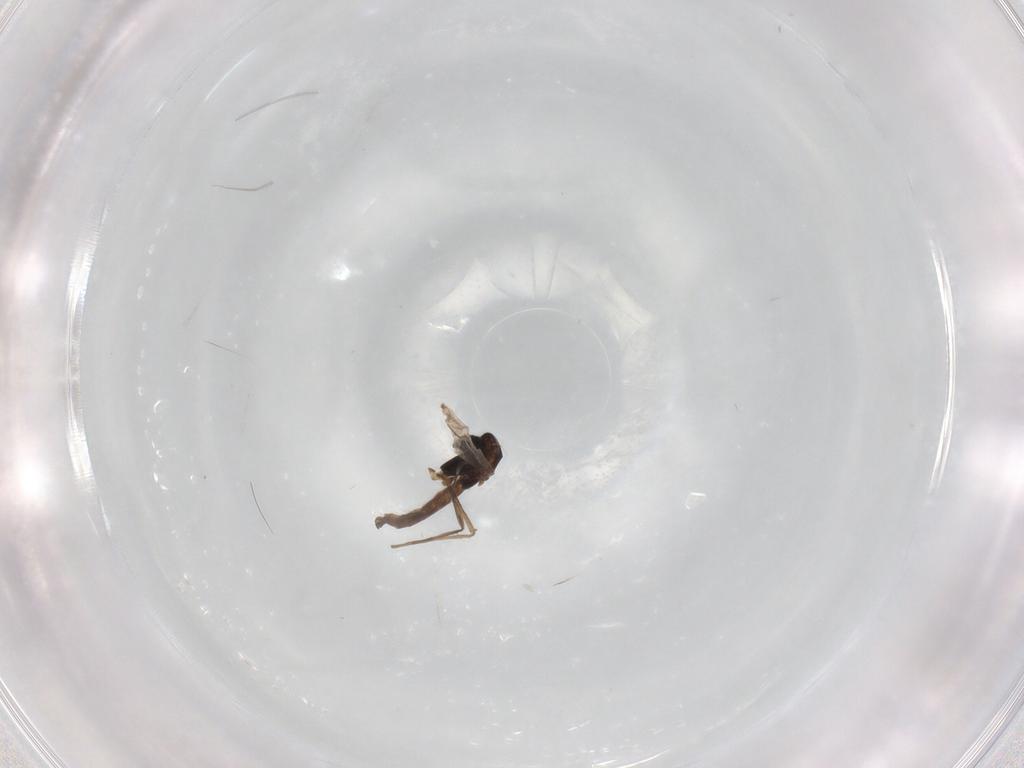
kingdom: Animalia
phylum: Arthropoda
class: Insecta
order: Diptera
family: Chironomidae
